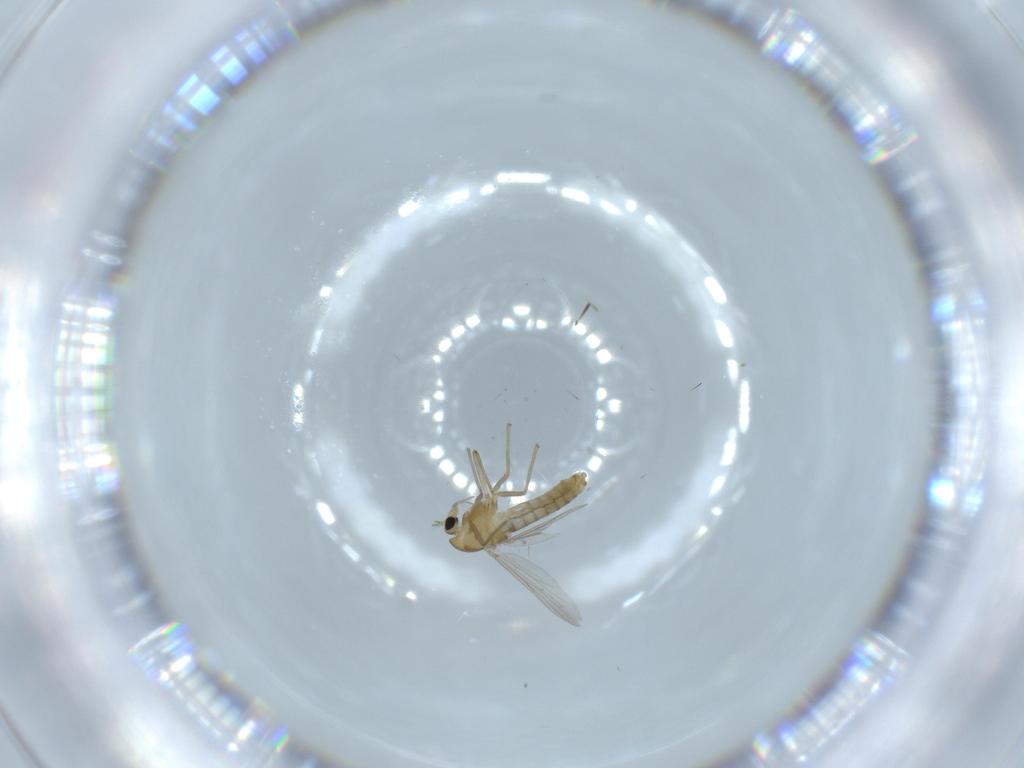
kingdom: Animalia
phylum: Arthropoda
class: Insecta
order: Diptera
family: Chironomidae
